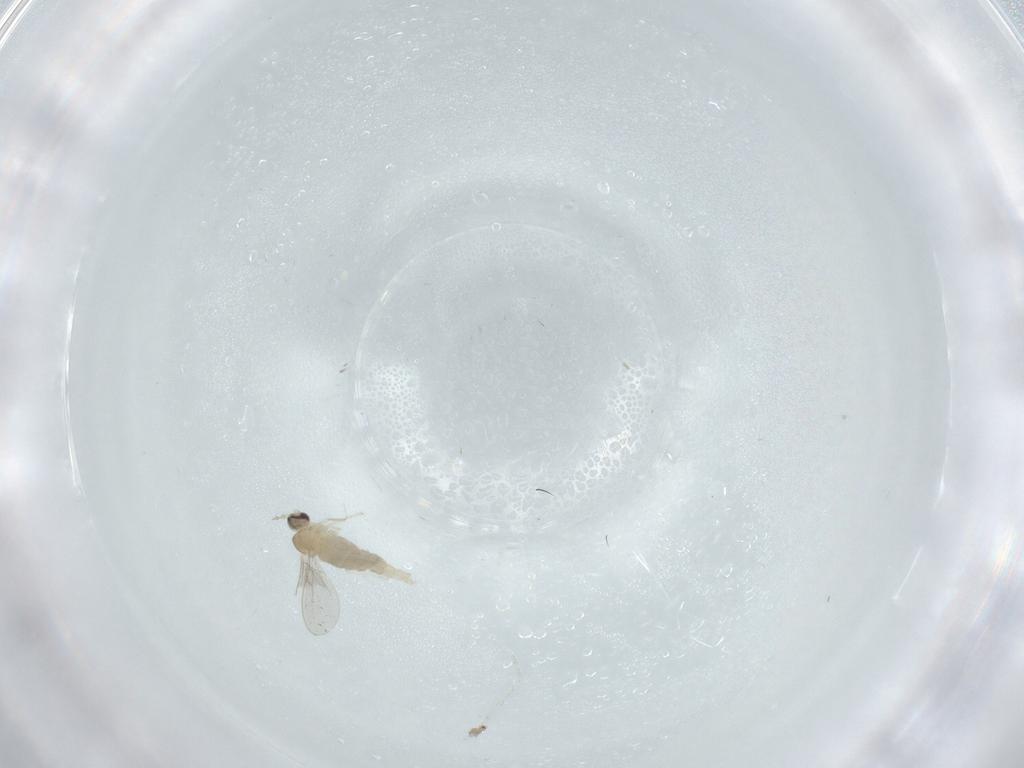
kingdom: Animalia
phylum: Arthropoda
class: Insecta
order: Diptera
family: Cecidomyiidae
